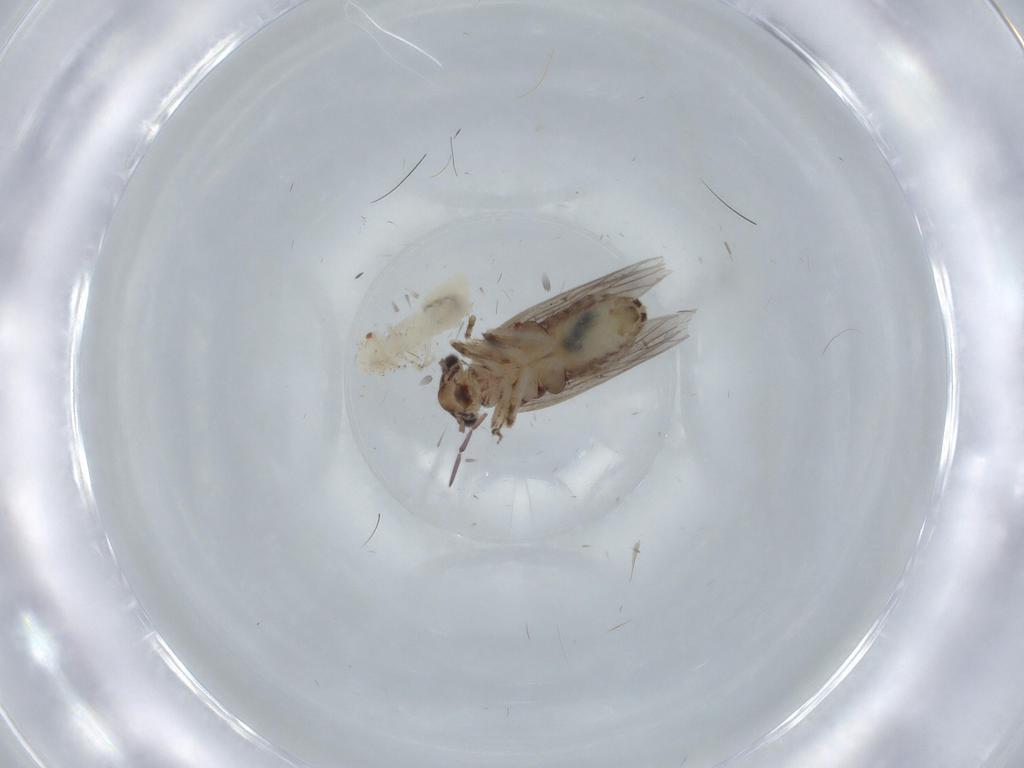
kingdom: Animalia
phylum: Arthropoda
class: Insecta
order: Psocodea
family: Lepidopsocidae
